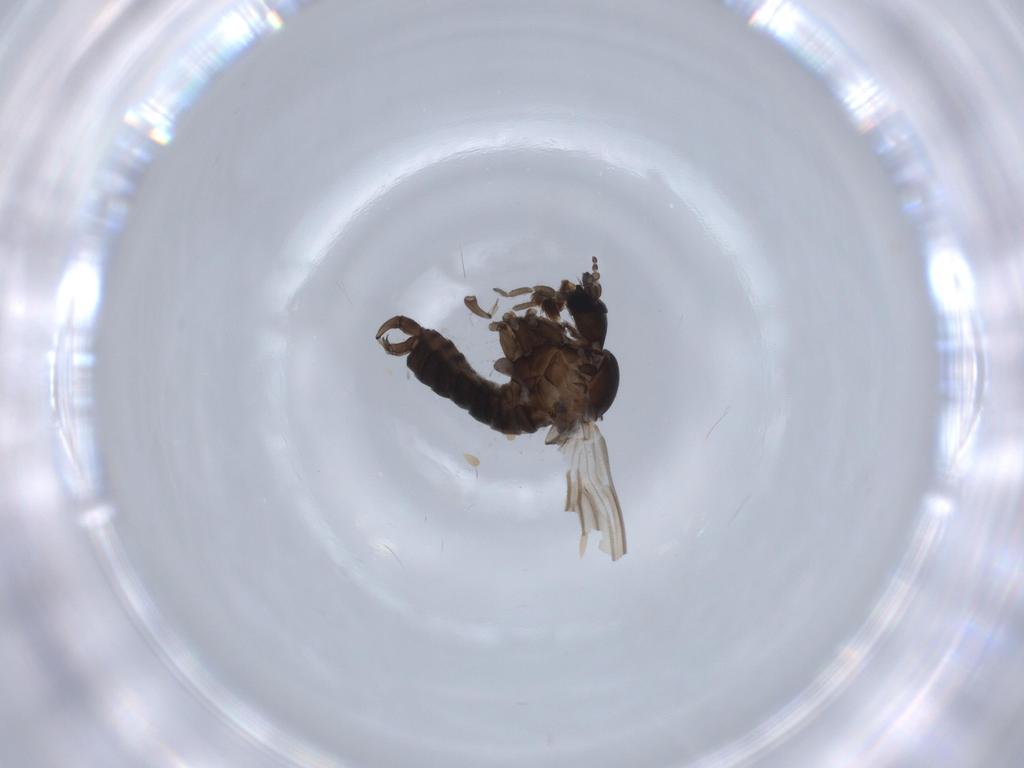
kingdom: Animalia
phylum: Arthropoda
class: Insecta
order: Diptera
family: Psychodidae
